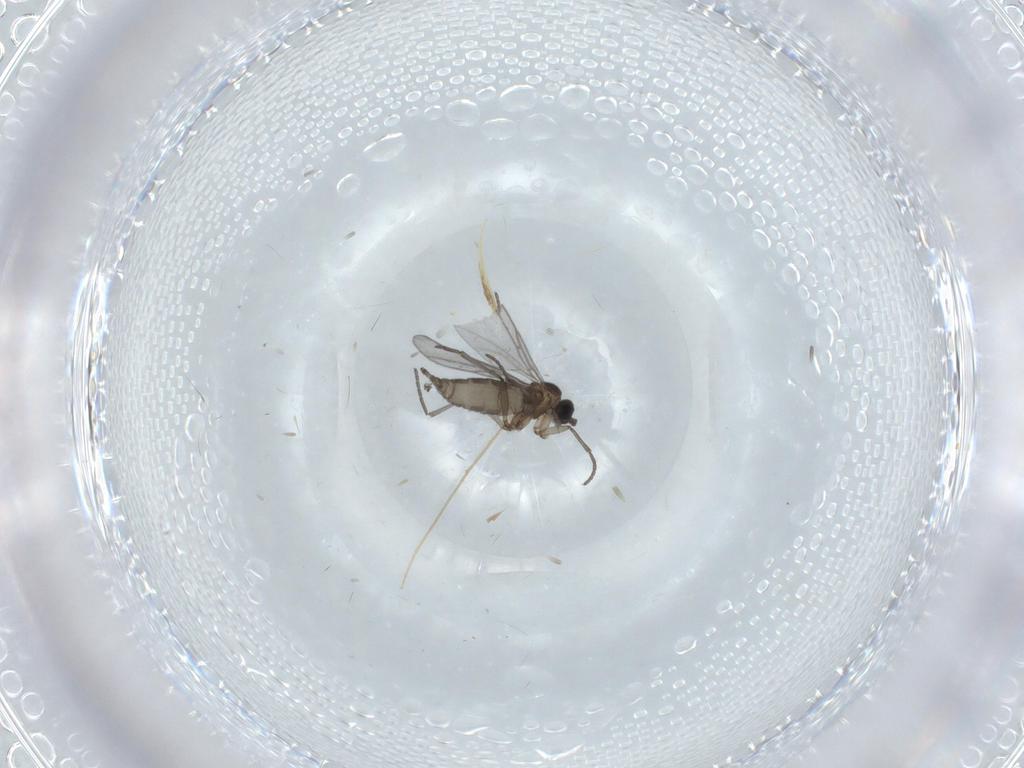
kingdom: Animalia
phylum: Arthropoda
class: Insecta
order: Diptera
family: Chironomidae
